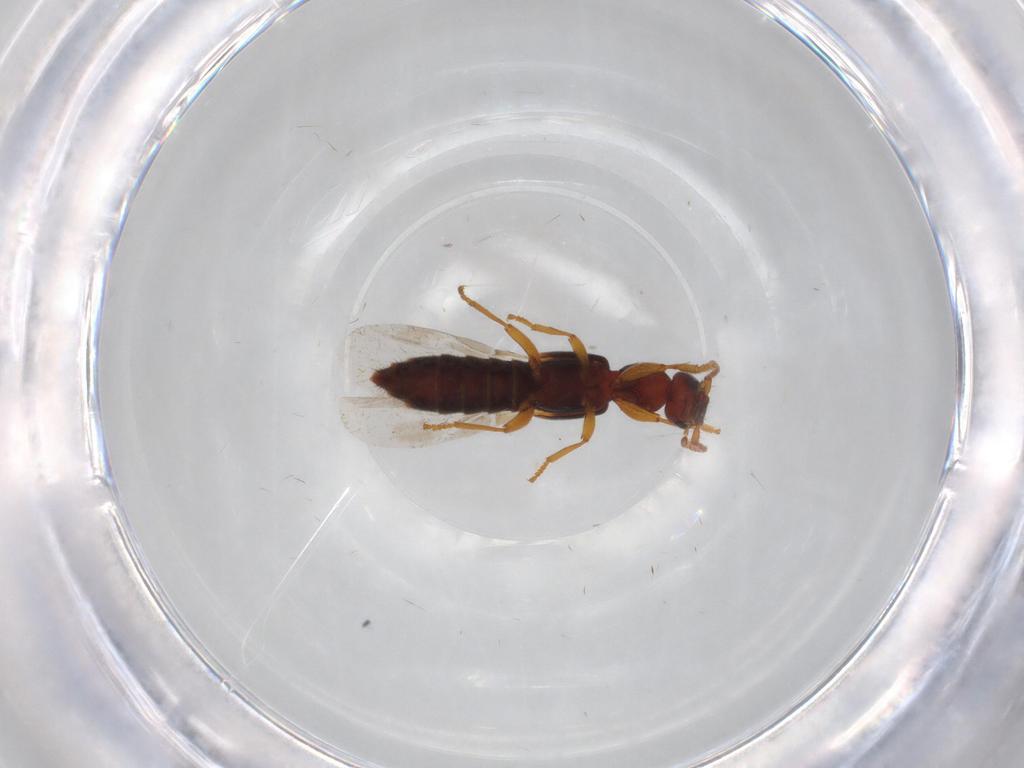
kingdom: Animalia
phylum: Arthropoda
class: Insecta
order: Coleoptera
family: Tenebrionidae
